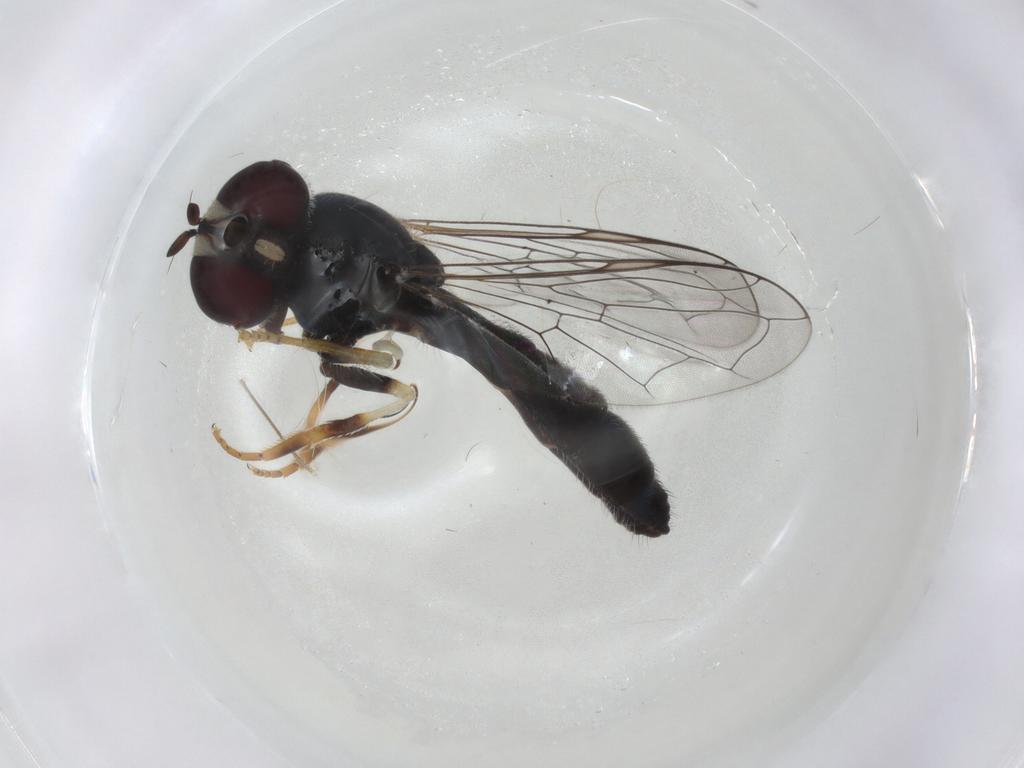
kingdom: Animalia
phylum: Arthropoda
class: Insecta
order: Diptera
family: Syrphidae
